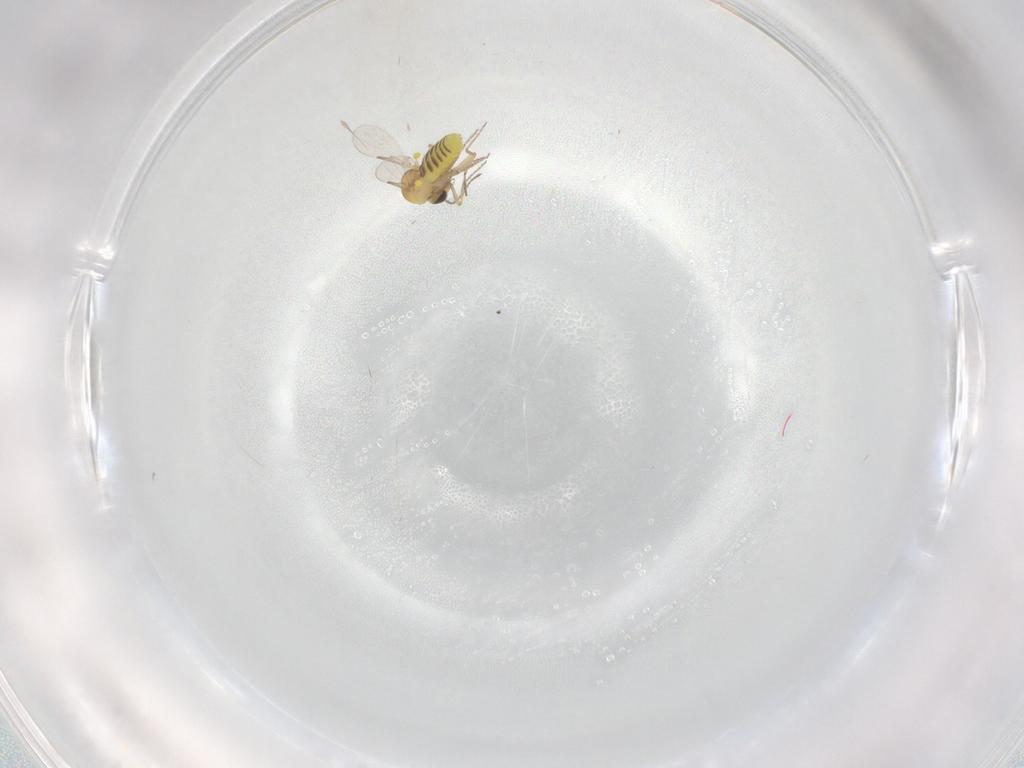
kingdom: Animalia
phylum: Arthropoda
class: Insecta
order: Diptera
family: Ceratopogonidae
